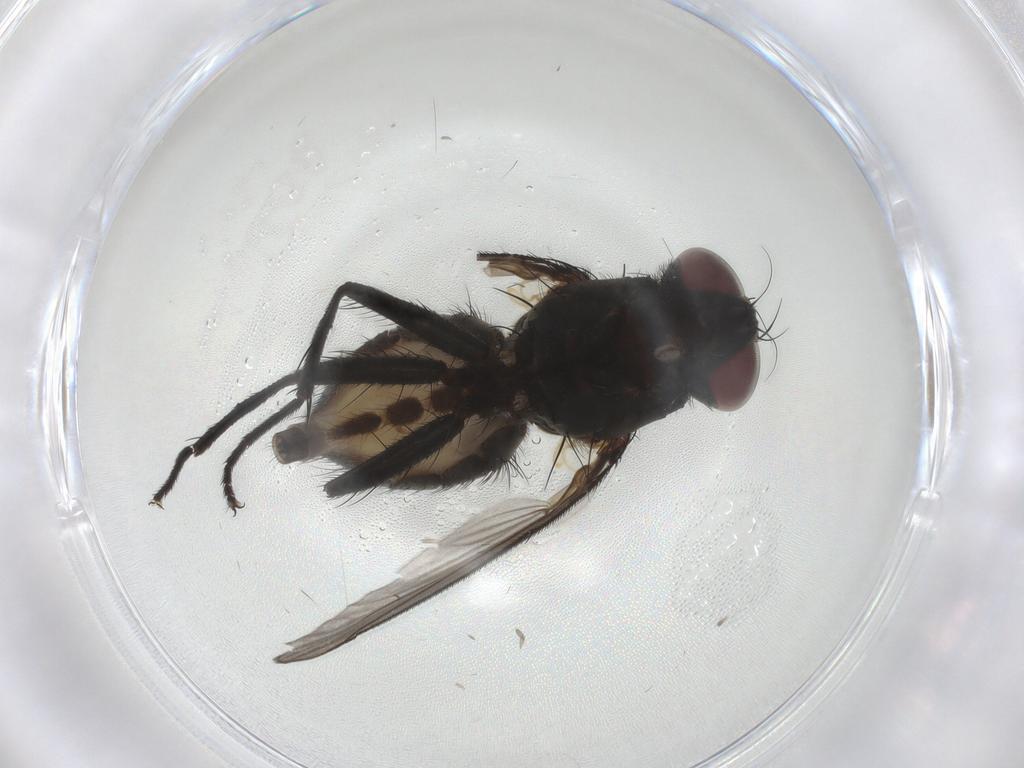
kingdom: Animalia
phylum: Arthropoda
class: Insecta
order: Diptera
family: Muscidae
